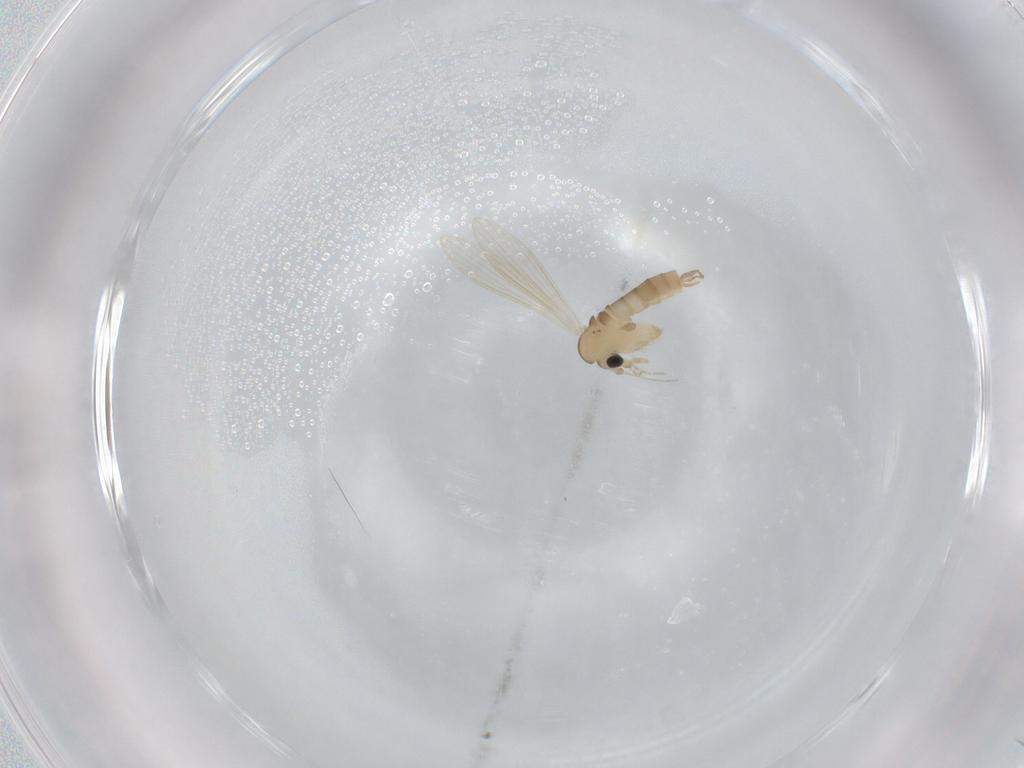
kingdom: Animalia
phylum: Arthropoda
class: Insecta
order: Diptera
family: Psychodidae
